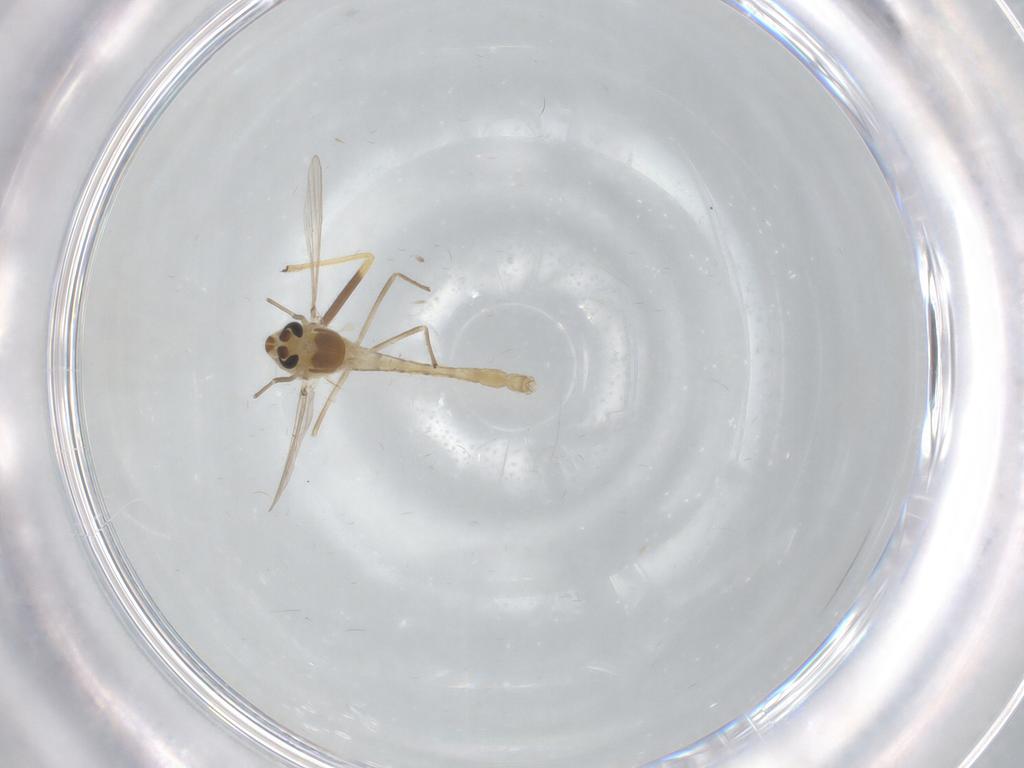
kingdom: Animalia
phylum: Arthropoda
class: Insecta
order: Diptera
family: Chironomidae
